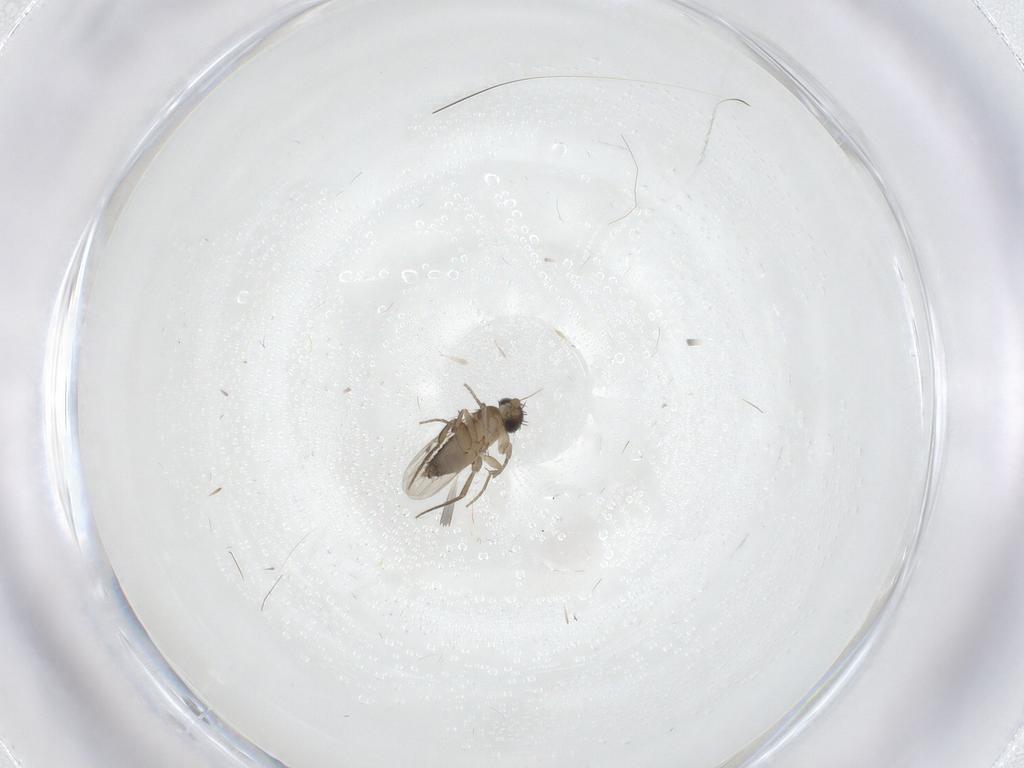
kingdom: Animalia
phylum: Arthropoda
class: Insecta
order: Diptera
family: Phoridae
